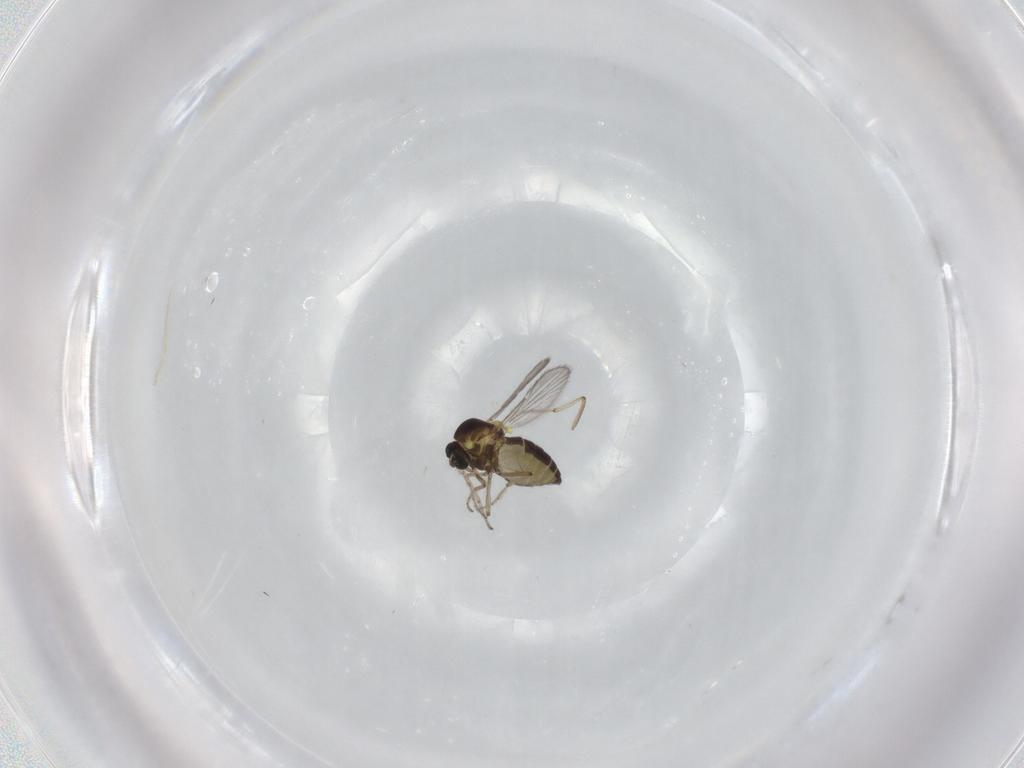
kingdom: Animalia
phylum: Arthropoda
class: Insecta
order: Diptera
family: Ceratopogonidae
